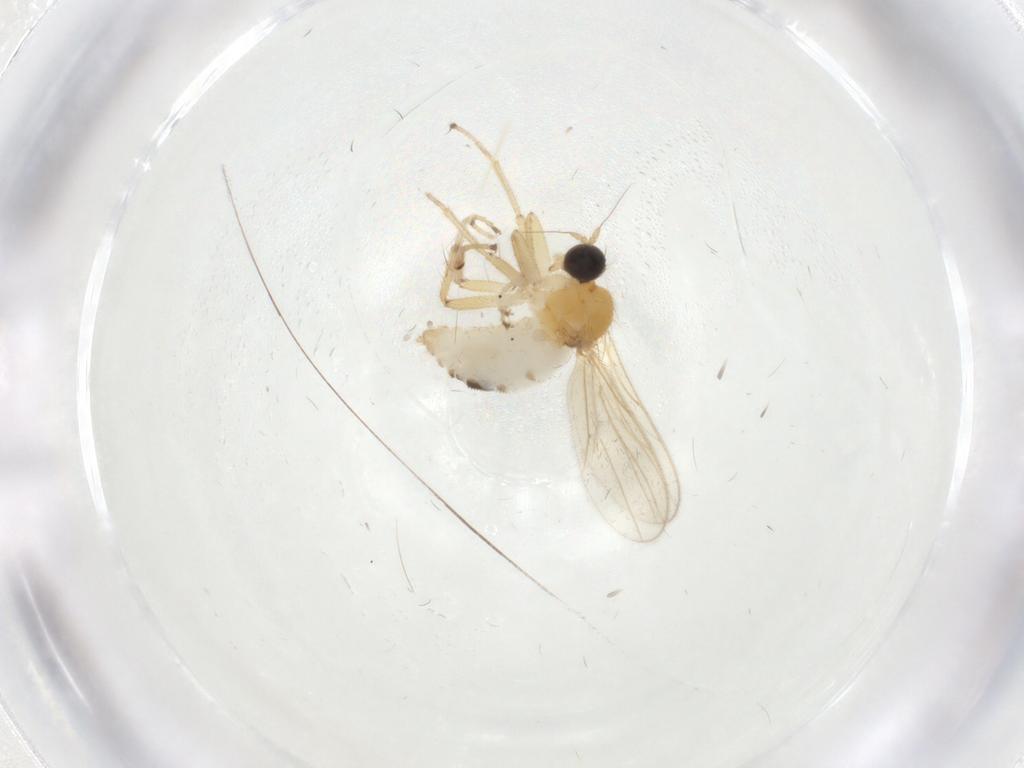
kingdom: Animalia
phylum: Arthropoda
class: Insecta
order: Diptera
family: Hybotidae
